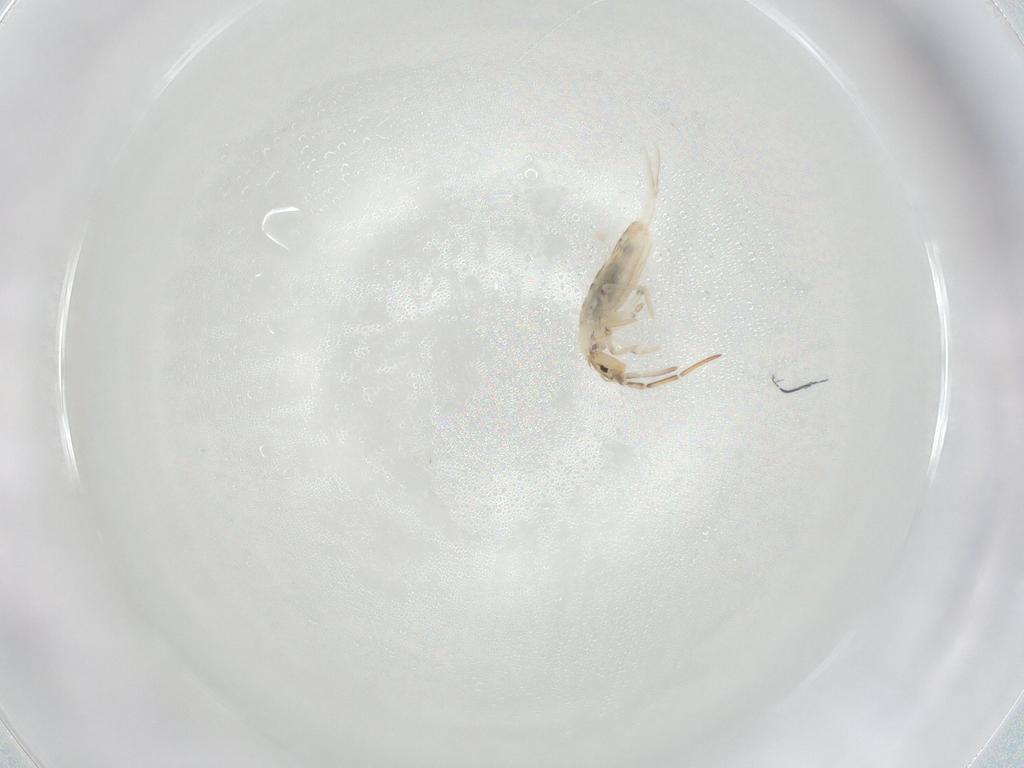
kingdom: Animalia
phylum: Arthropoda
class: Collembola
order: Entomobryomorpha
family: Entomobryidae
